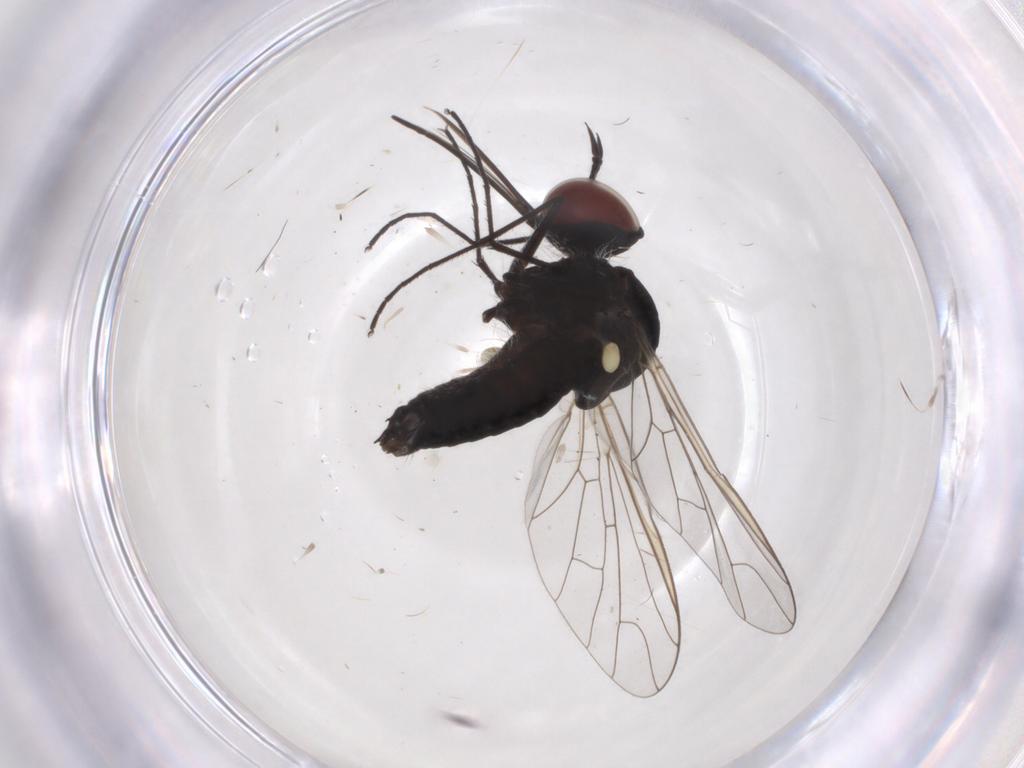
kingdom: Animalia
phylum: Arthropoda
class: Insecta
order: Diptera
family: Bombyliidae
